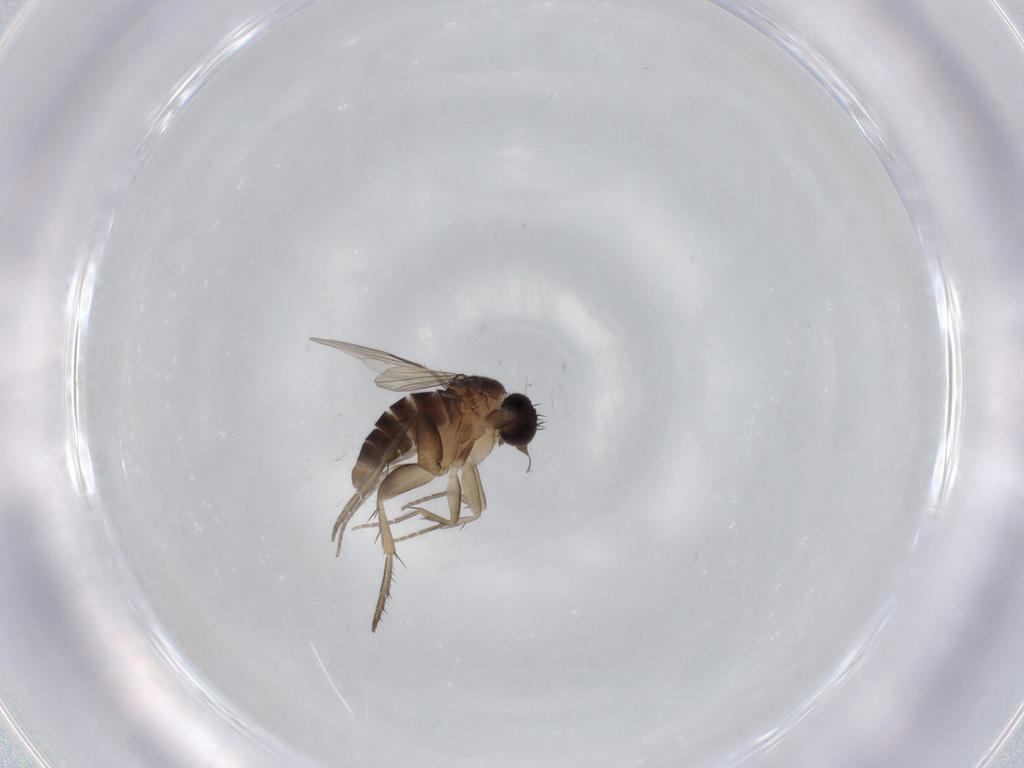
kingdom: Animalia
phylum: Arthropoda
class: Insecta
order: Diptera
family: Phoridae
